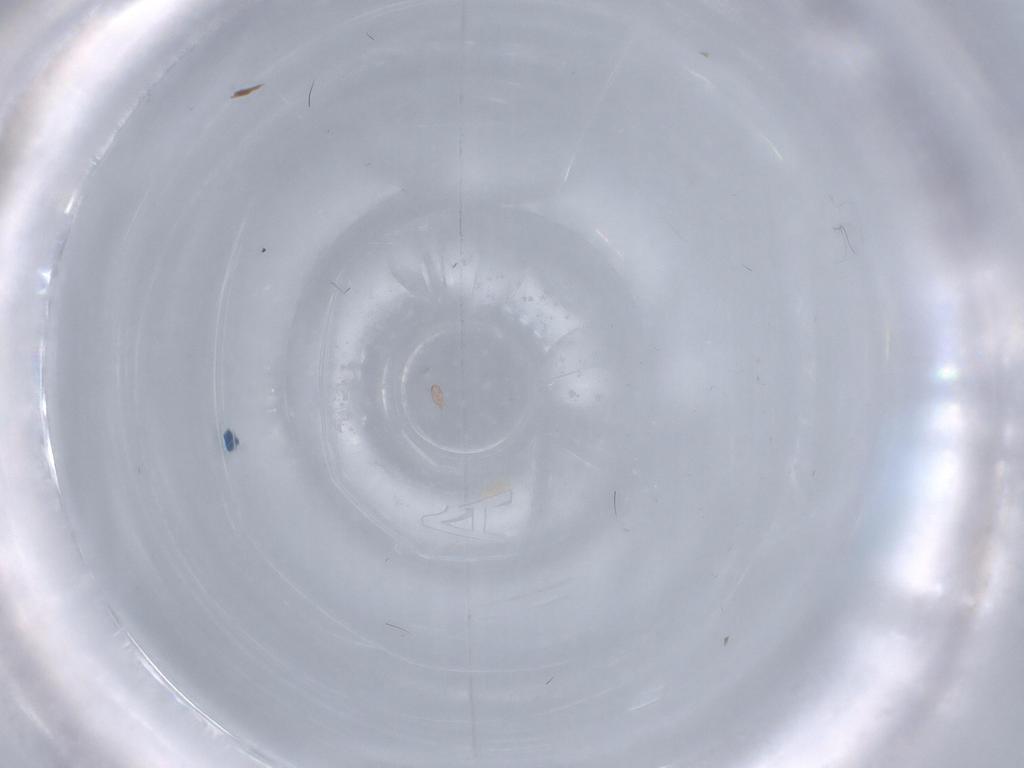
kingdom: Animalia
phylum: Arthropoda
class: Arachnida
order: Trombidiformes
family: Erythraeidae
